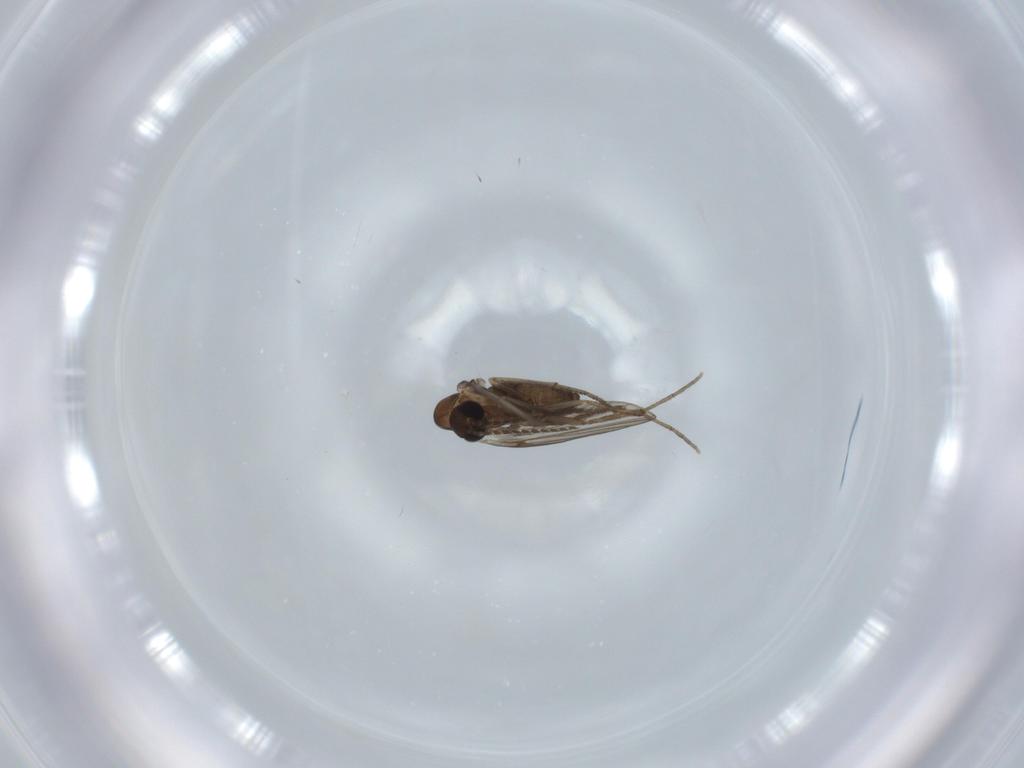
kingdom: Animalia
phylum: Arthropoda
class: Insecta
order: Diptera
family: Psychodidae
